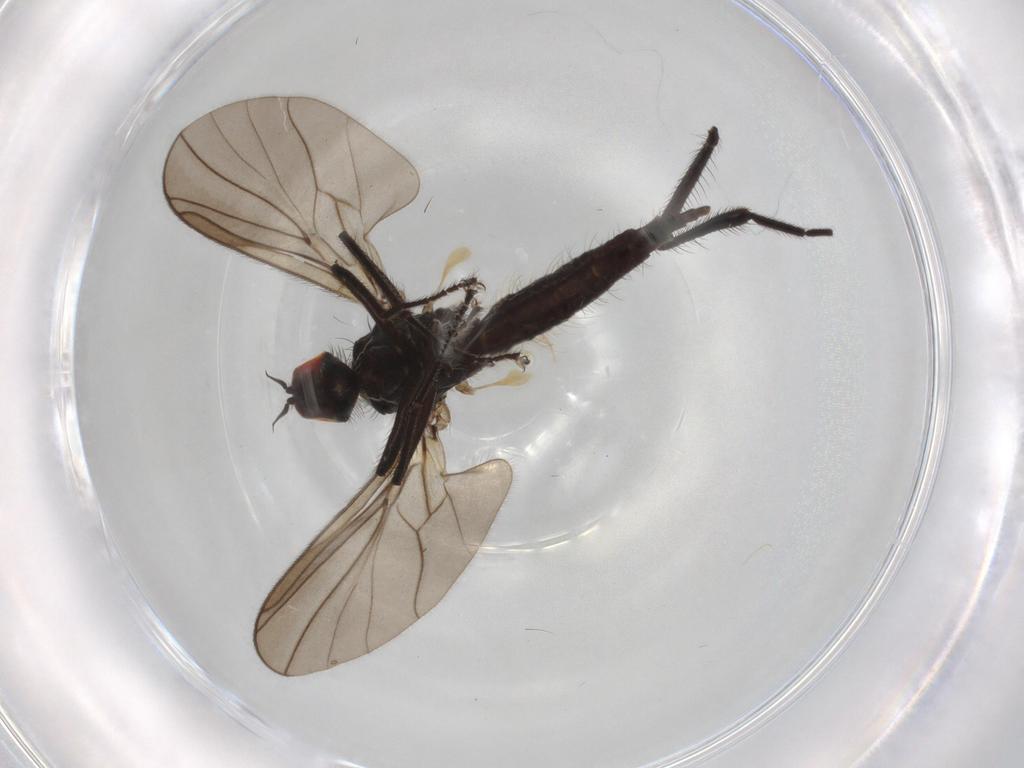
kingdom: Animalia
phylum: Arthropoda
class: Insecta
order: Diptera
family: Hybotidae
